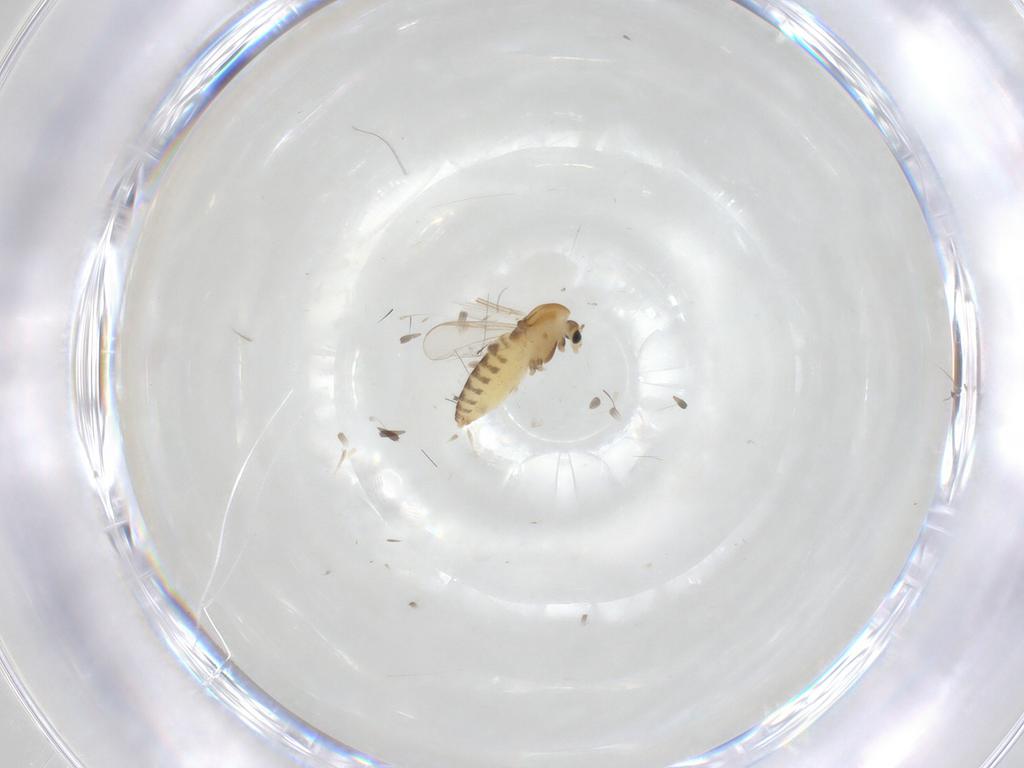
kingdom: Animalia
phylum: Arthropoda
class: Insecta
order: Diptera
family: Chironomidae
